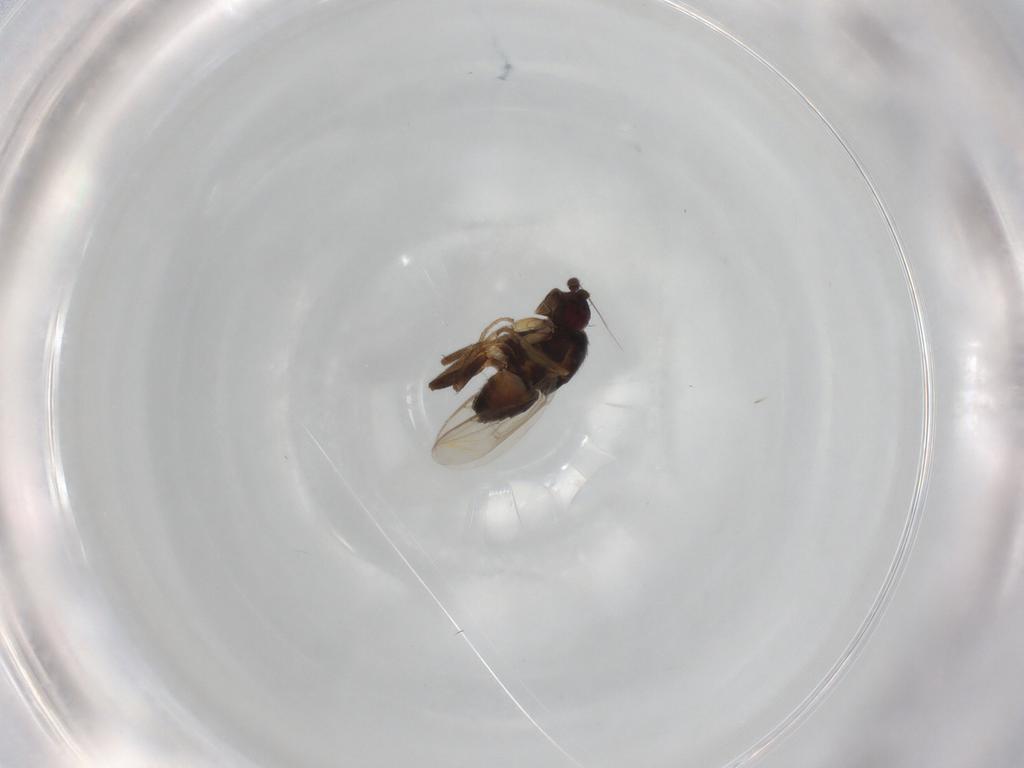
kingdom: Animalia
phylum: Arthropoda
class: Insecta
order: Diptera
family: Sphaeroceridae
